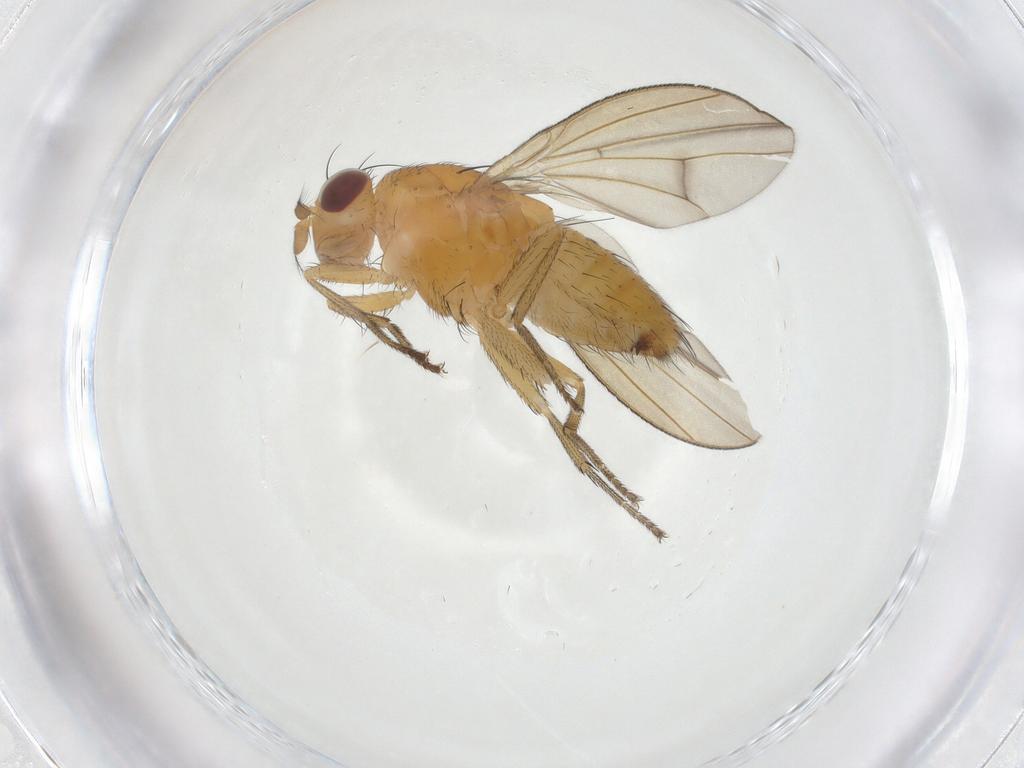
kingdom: Animalia
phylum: Arthropoda
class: Insecta
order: Diptera
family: Lauxaniidae
